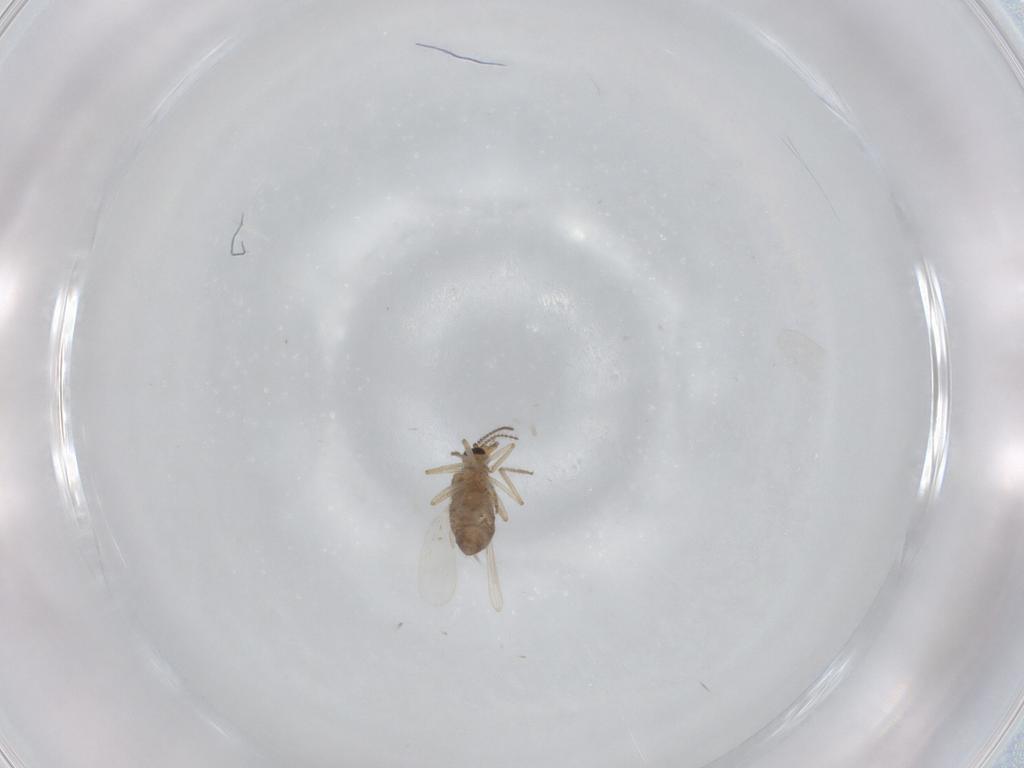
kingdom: Animalia
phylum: Arthropoda
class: Insecta
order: Diptera
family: Ceratopogonidae
